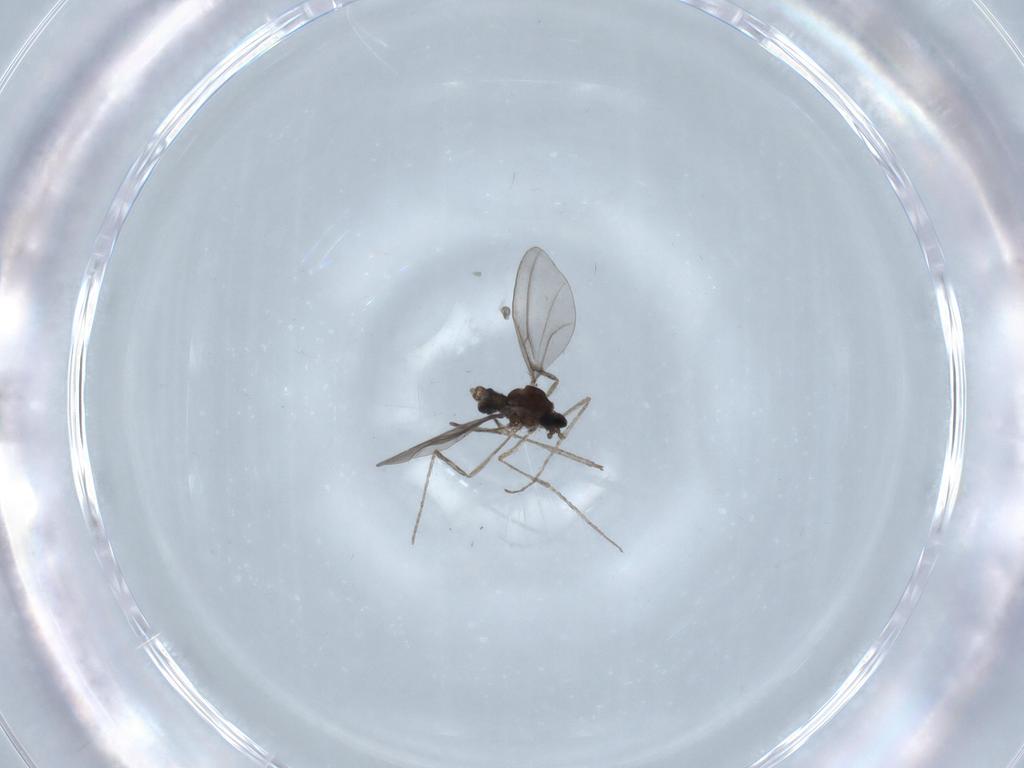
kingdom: Animalia
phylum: Arthropoda
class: Insecta
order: Diptera
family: Cecidomyiidae
